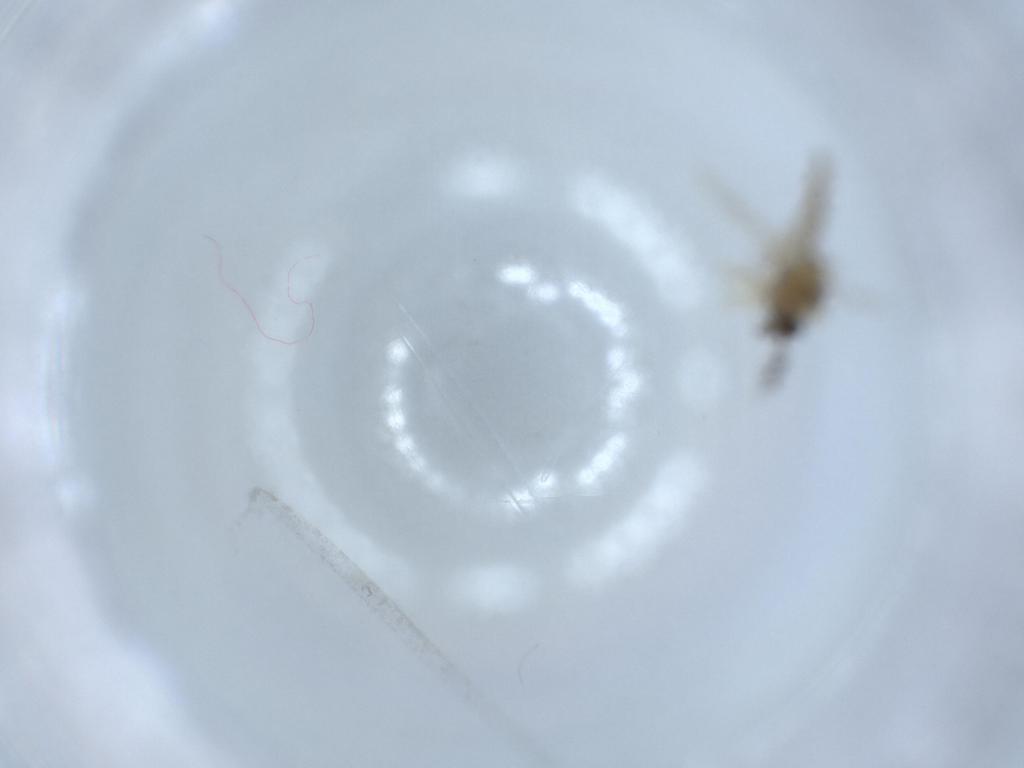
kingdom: Animalia
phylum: Arthropoda
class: Insecta
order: Diptera
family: Ceratopogonidae
